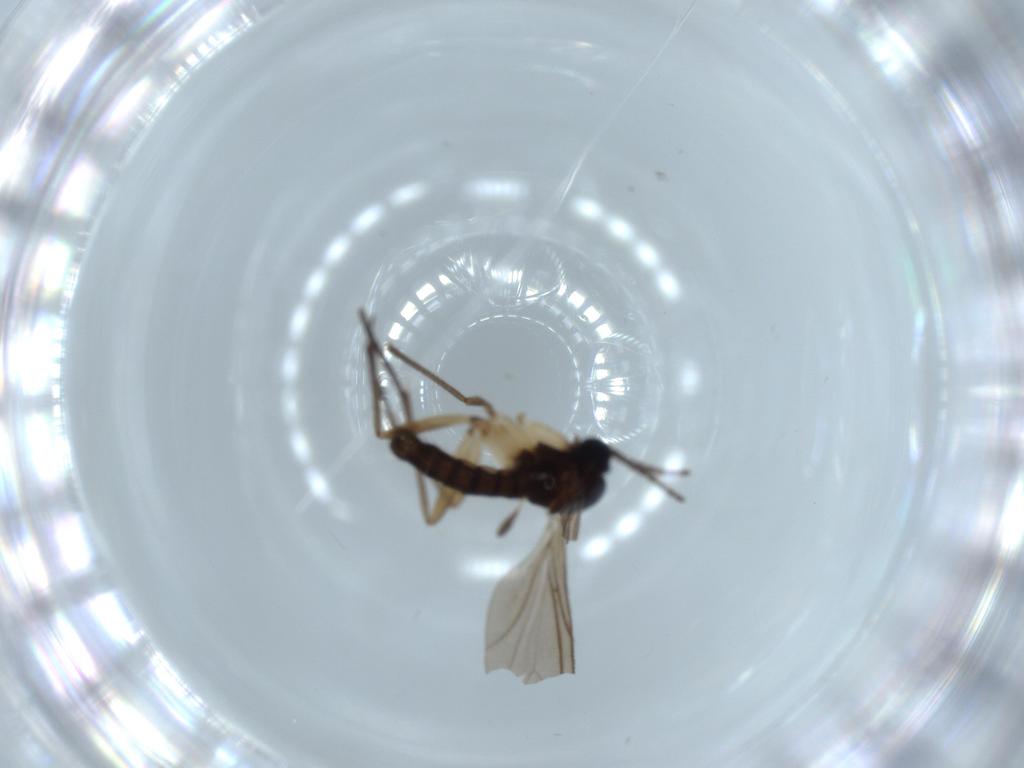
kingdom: Animalia
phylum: Arthropoda
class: Insecta
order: Diptera
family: Sciaridae
